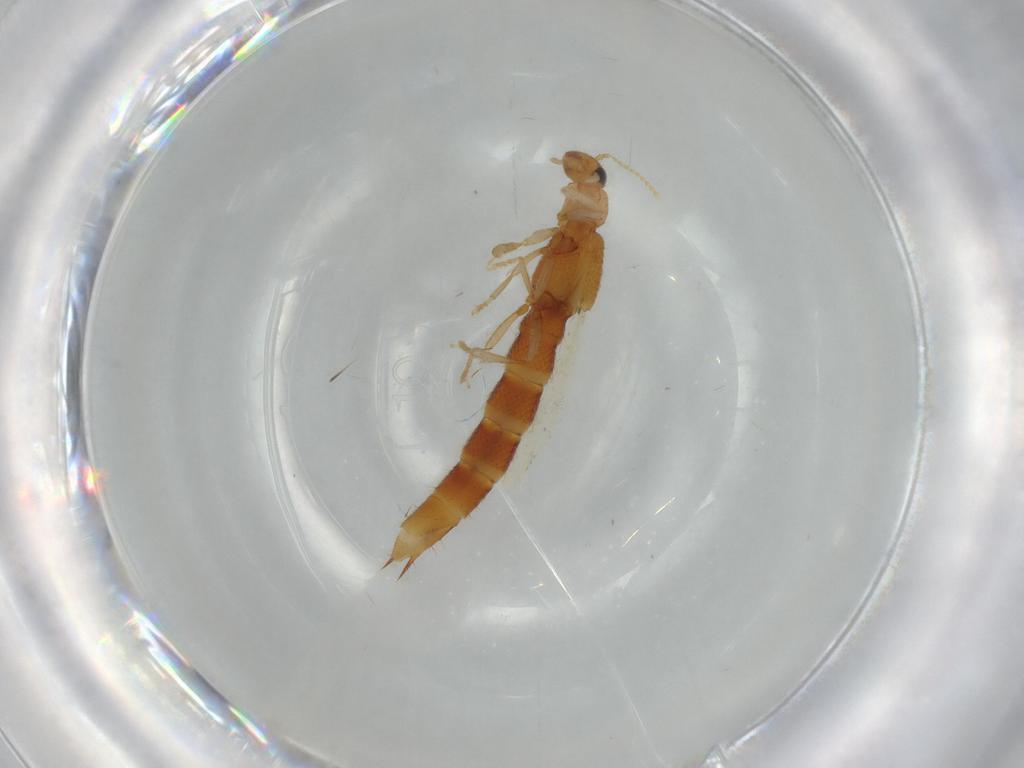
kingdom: Animalia
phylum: Arthropoda
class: Insecta
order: Coleoptera
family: Staphylinidae
